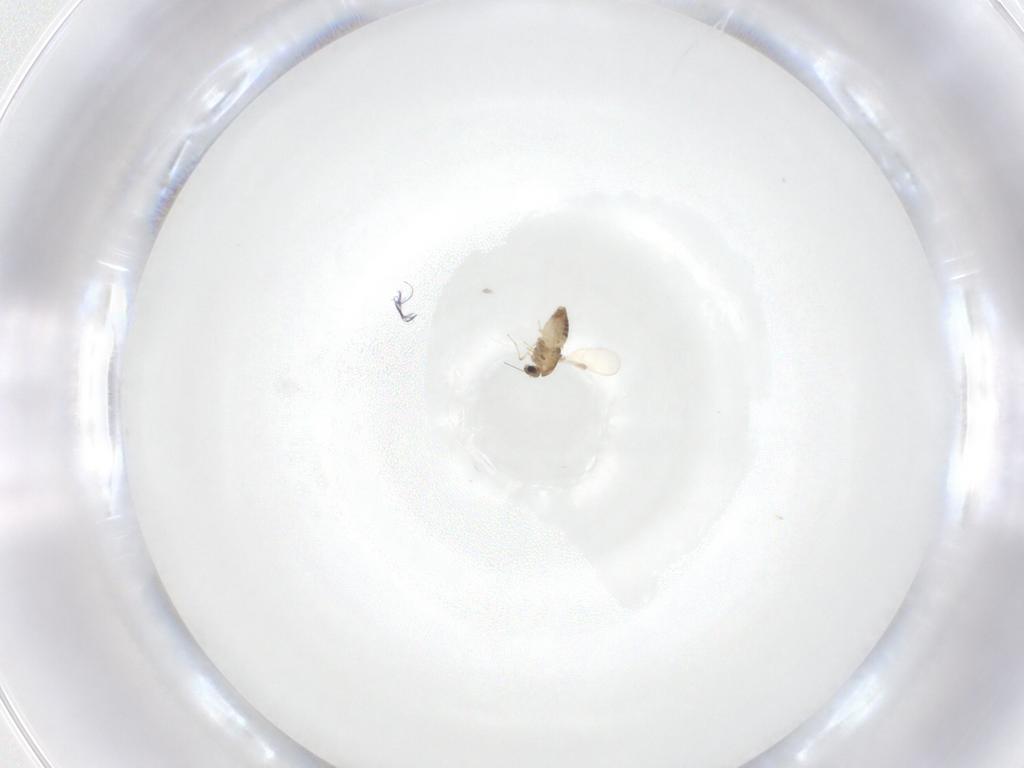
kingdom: Animalia
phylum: Arthropoda
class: Insecta
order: Diptera
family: Chironomidae
